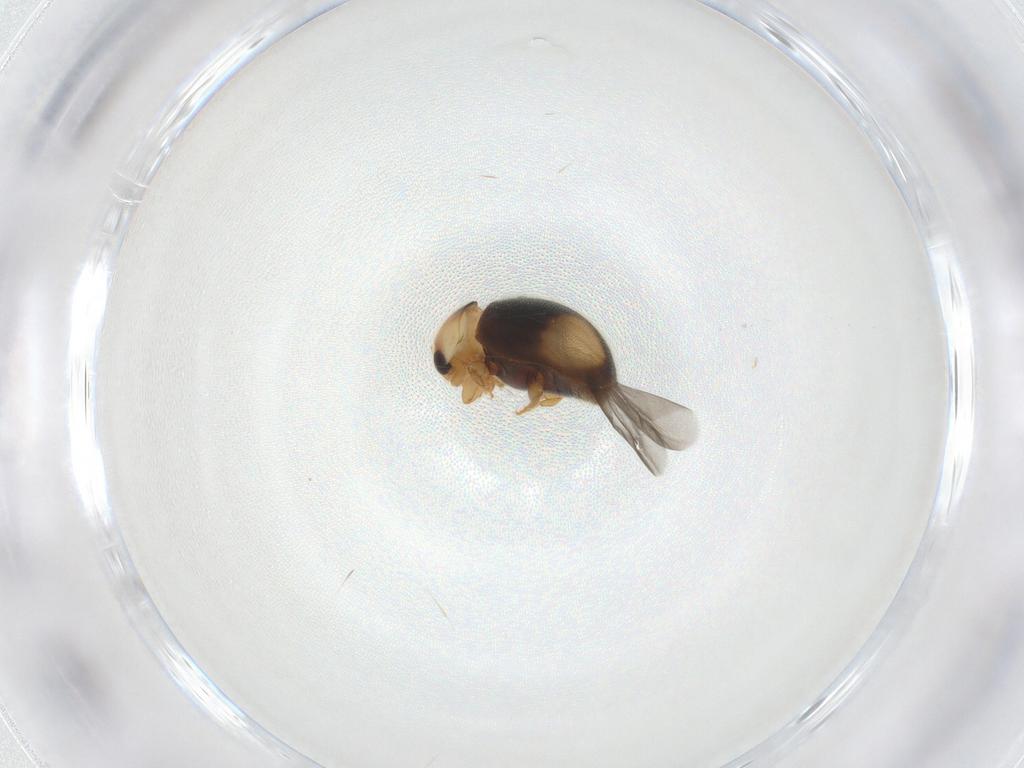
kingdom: Animalia
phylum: Arthropoda
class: Insecta
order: Coleoptera
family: Coccinellidae
